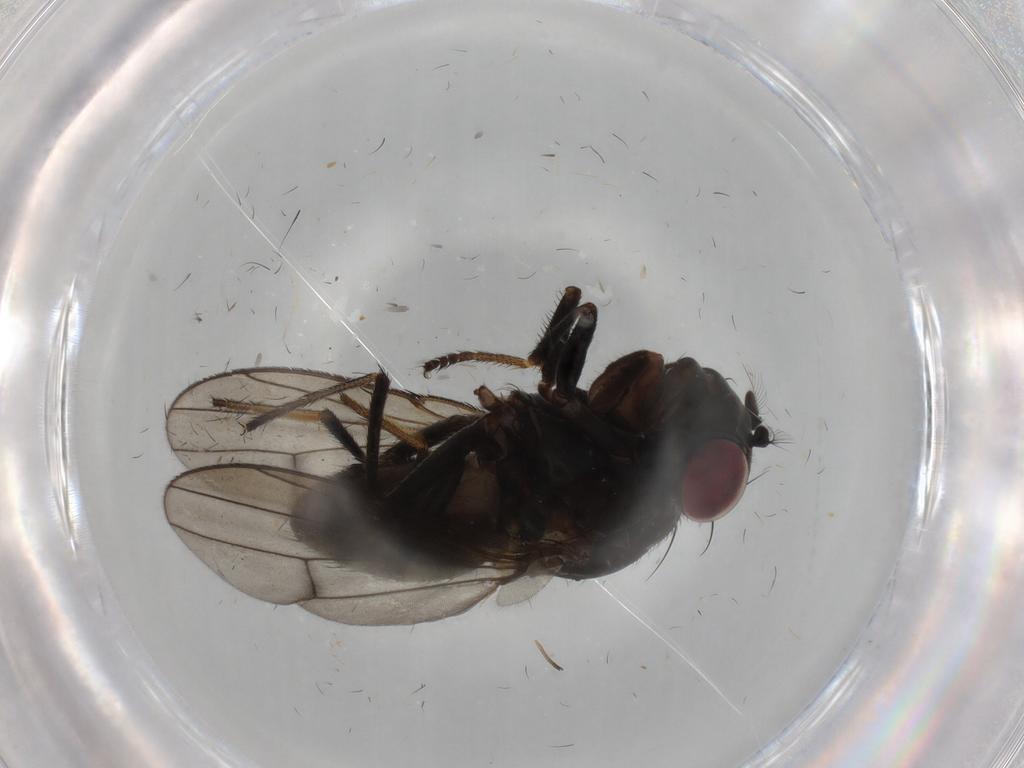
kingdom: Animalia
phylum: Arthropoda
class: Insecta
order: Diptera
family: Ephydridae
